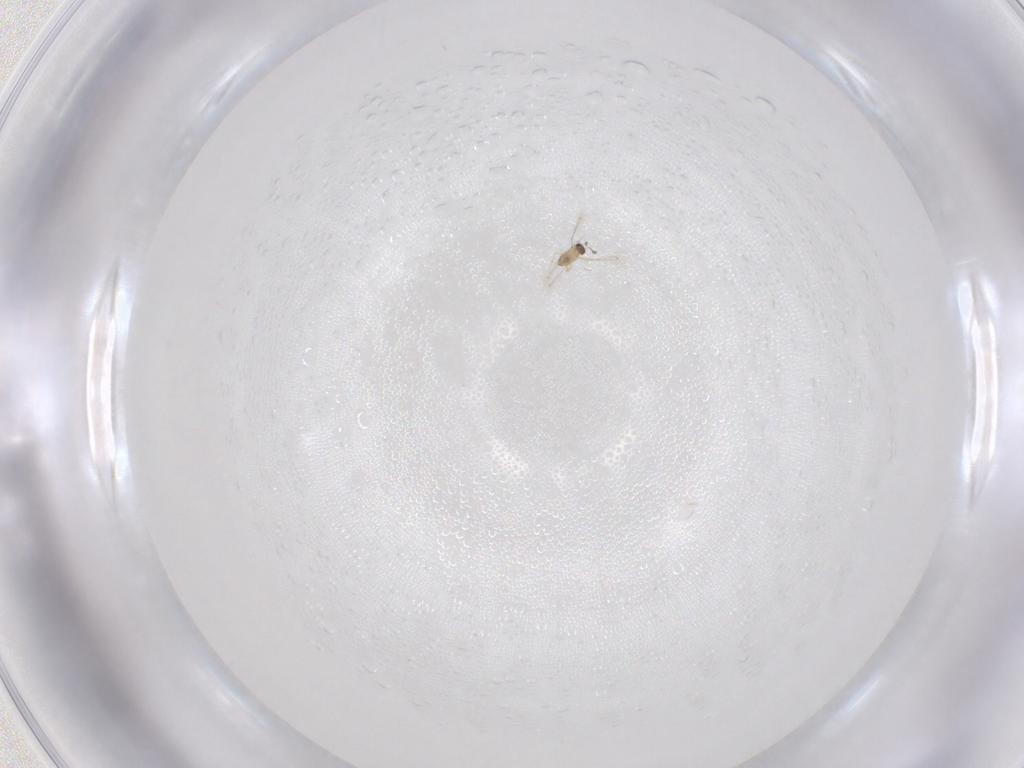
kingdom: Animalia
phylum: Arthropoda
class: Insecta
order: Hymenoptera
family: Mymaridae
